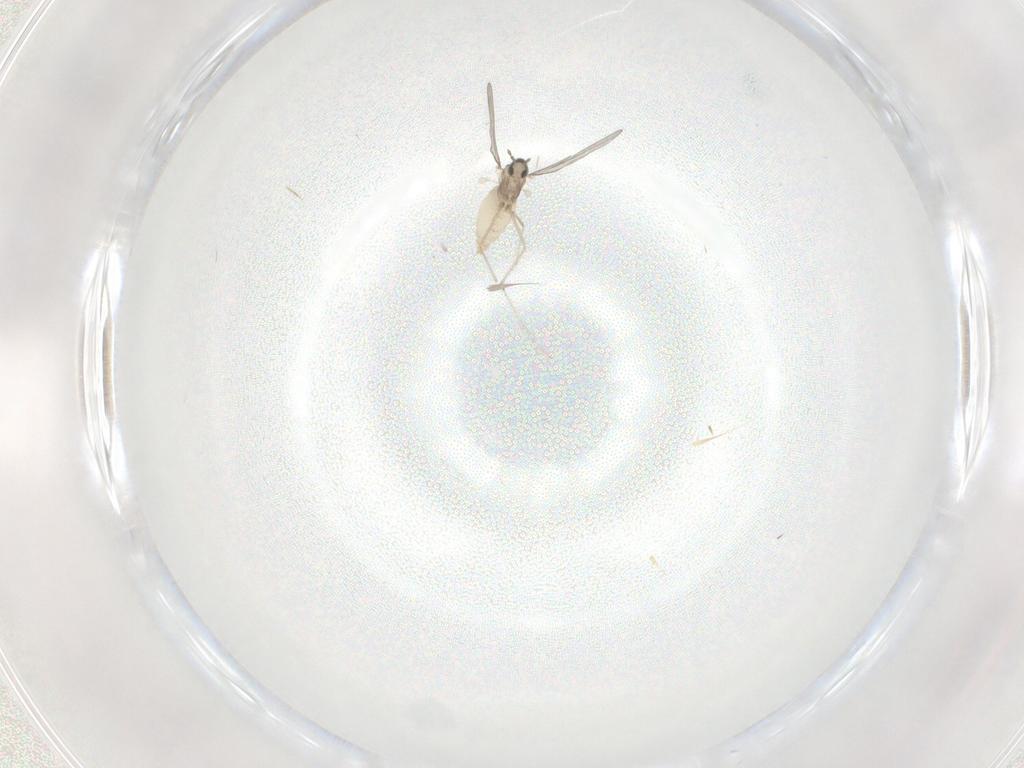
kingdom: Animalia
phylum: Arthropoda
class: Insecta
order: Diptera
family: Cecidomyiidae
